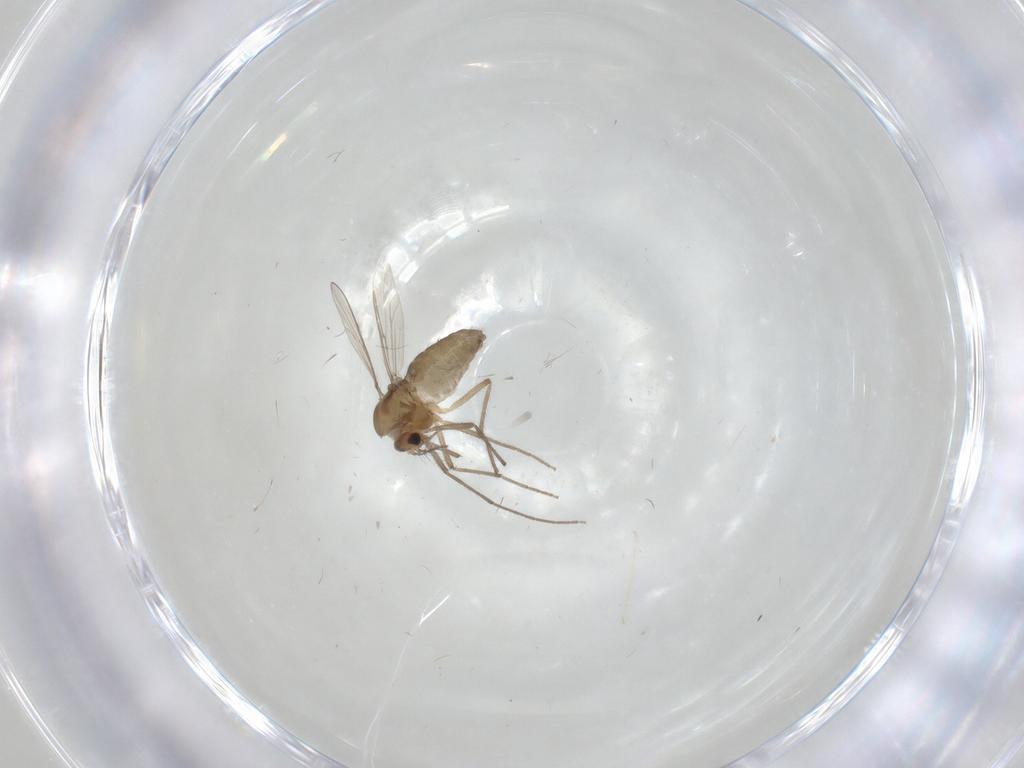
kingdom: Animalia
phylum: Arthropoda
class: Insecta
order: Diptera
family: Chironomidae
